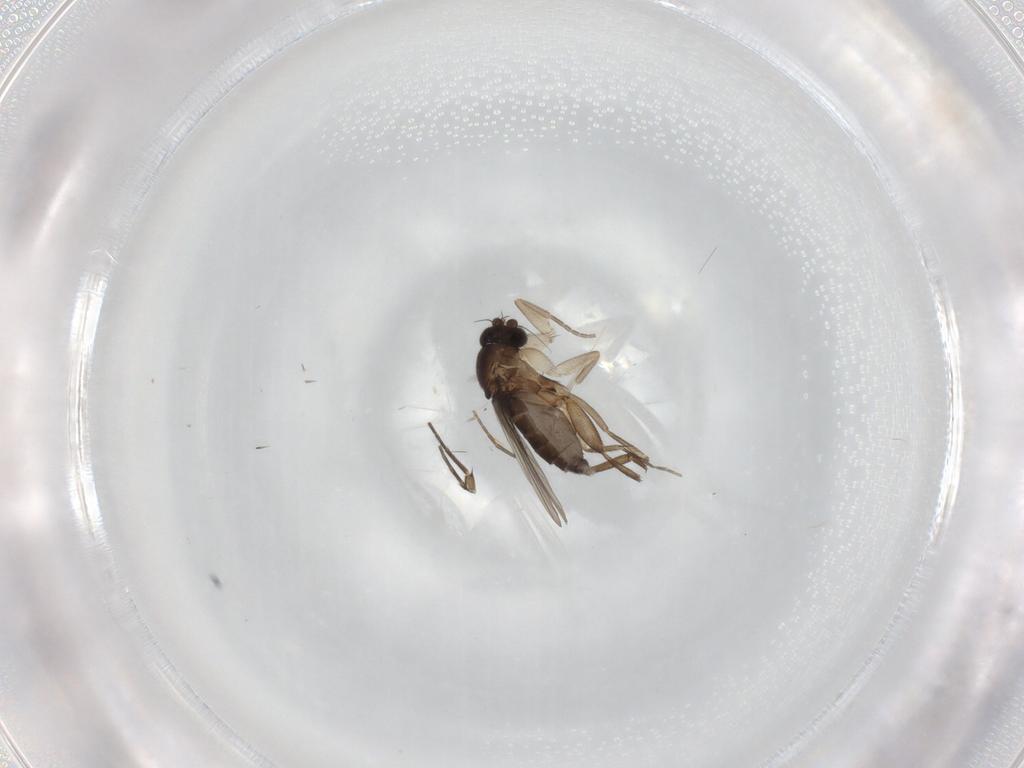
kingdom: Animalia
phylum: Arthropoda
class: Insecta
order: Diptera
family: Phoridae
